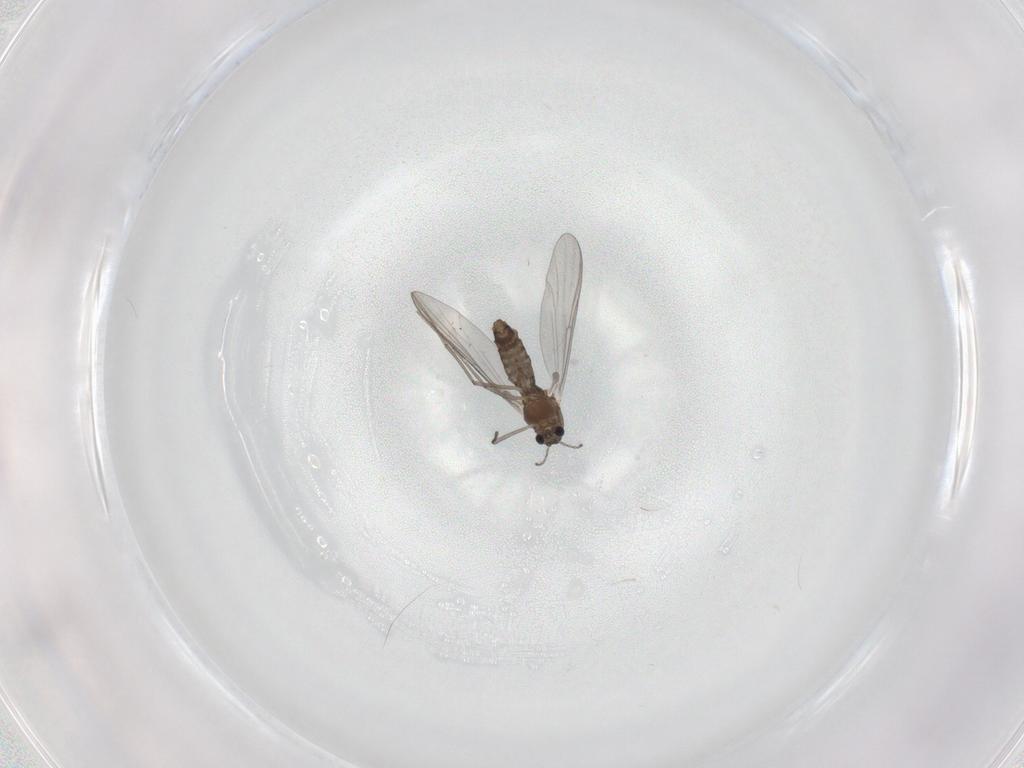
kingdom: Animalia
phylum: Arthropoda
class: Insecta
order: Diptera
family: Chironomidae
